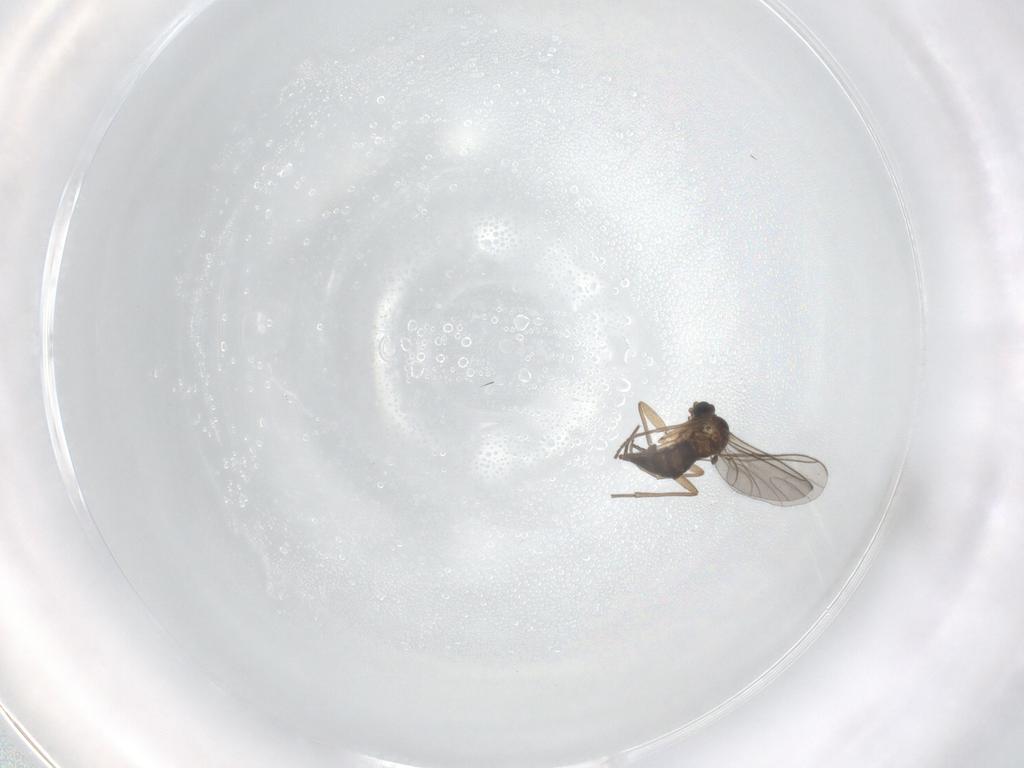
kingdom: Animalia
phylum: Arthropoda
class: Insecta
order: Diptera
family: Sciaridae
